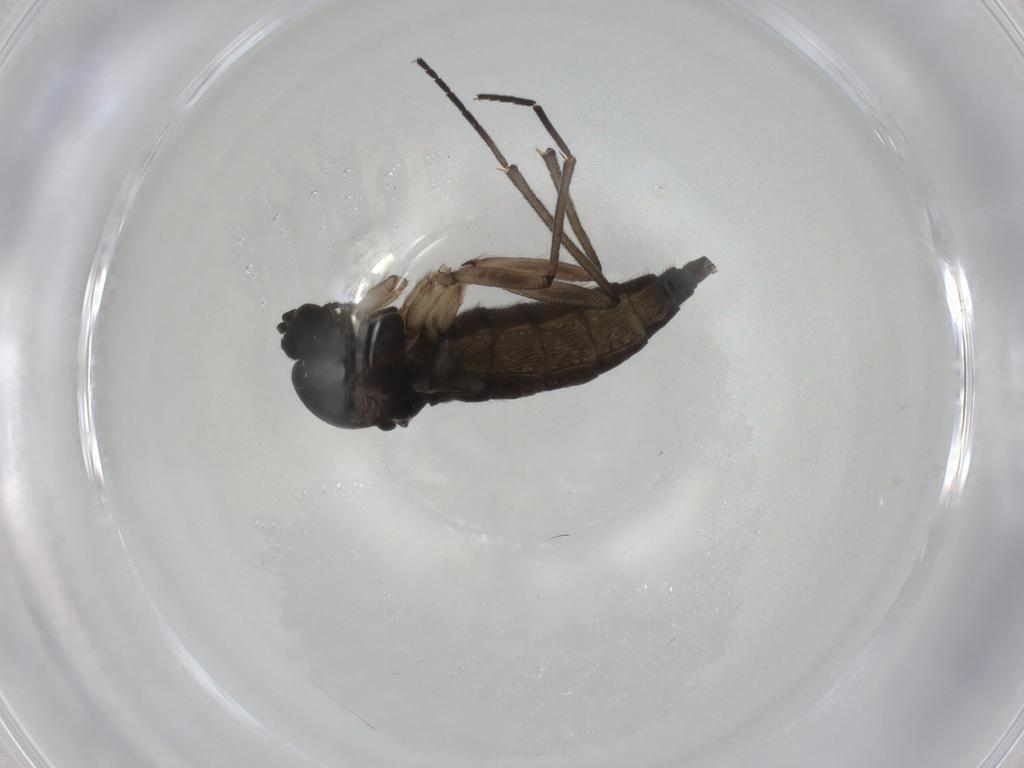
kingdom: Animalia
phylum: Arthropoda
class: Insecta
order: Diptera
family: Sciaridae
